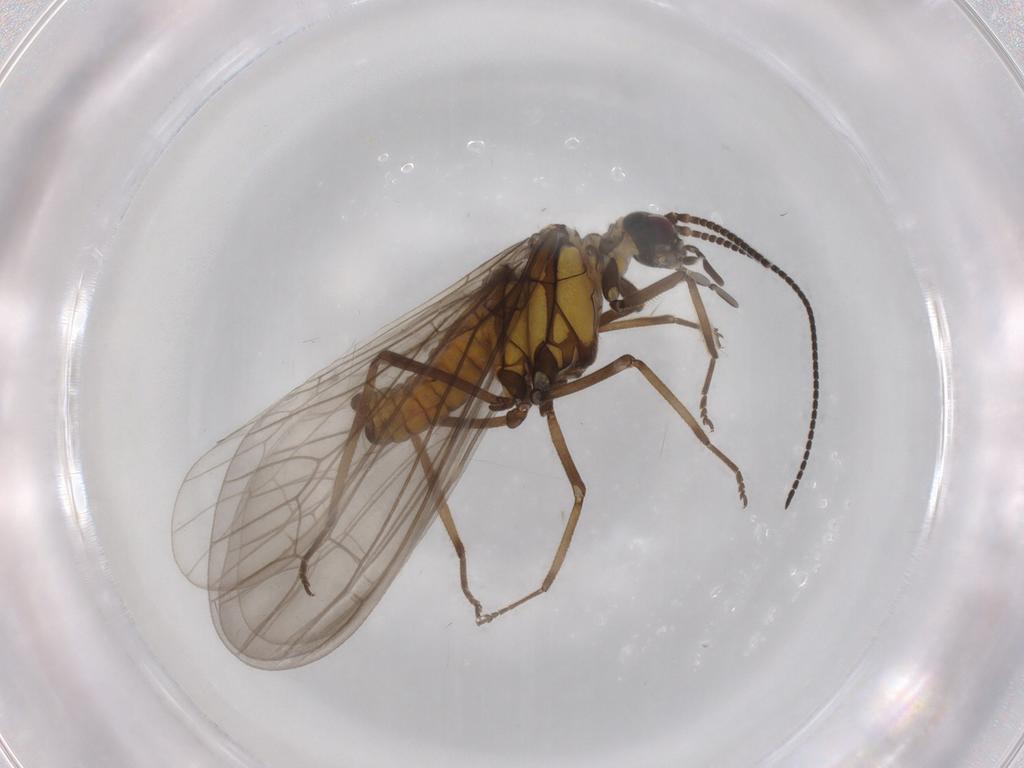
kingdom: Animalia
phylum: Arthropoda
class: Insecta
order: Neuroptera
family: Coniopterygidae
